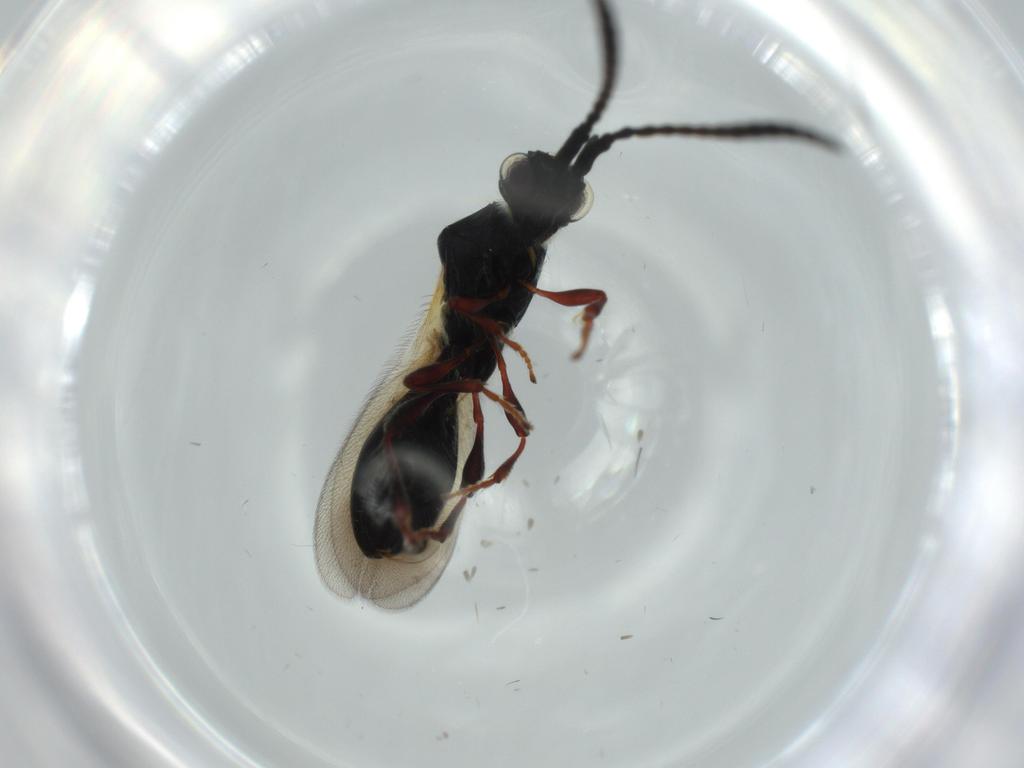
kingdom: Animalia
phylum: Arthropoda
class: Insecta
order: Hymenoptera
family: Diapriidae
